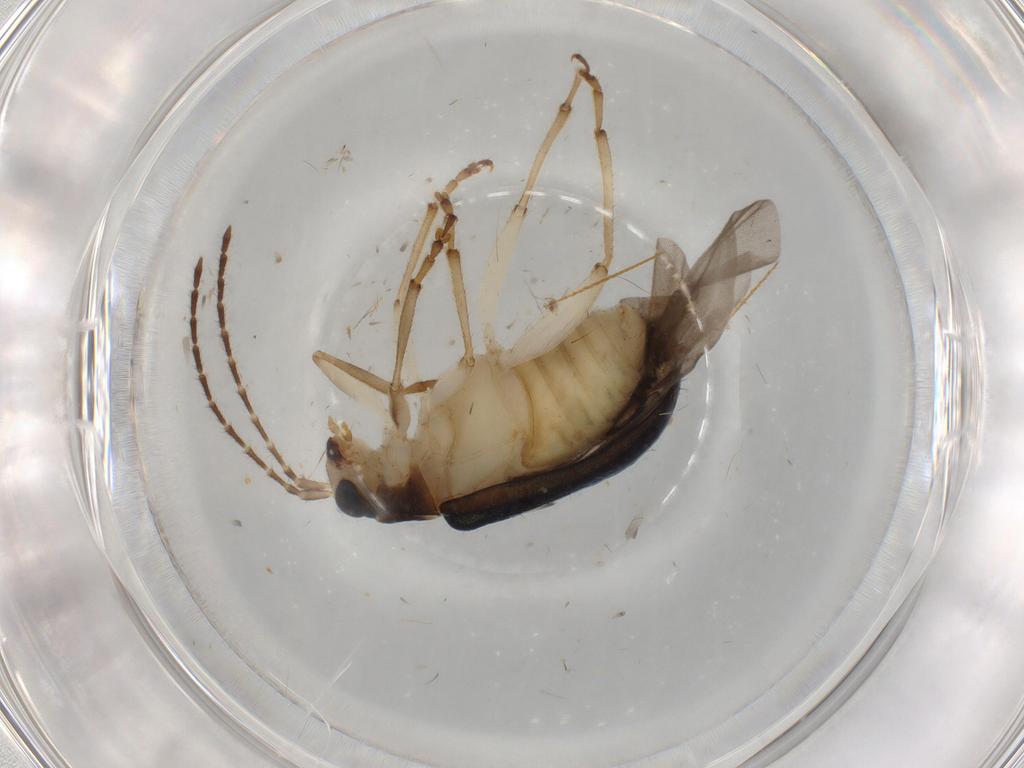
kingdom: Animalia
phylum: Arthropoda
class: Insecta
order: Coleoptera
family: Chrysomelidae
